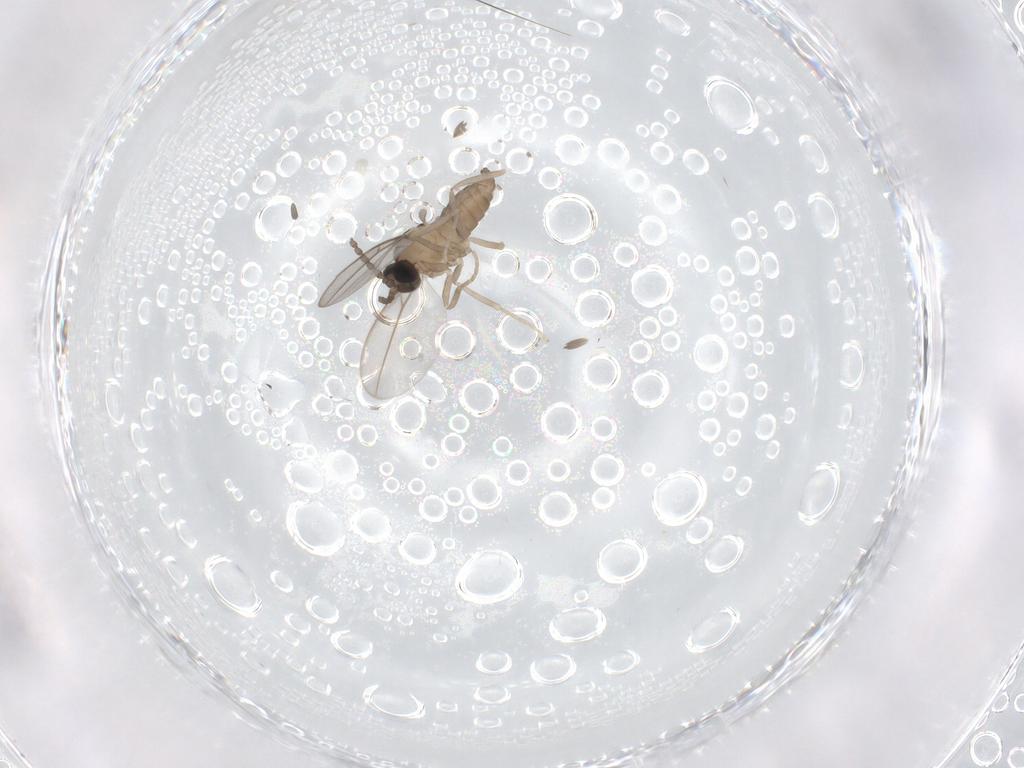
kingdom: Animalia
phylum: Arthropoda
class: Insecta
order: Diptera
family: Cecidomyiidae
